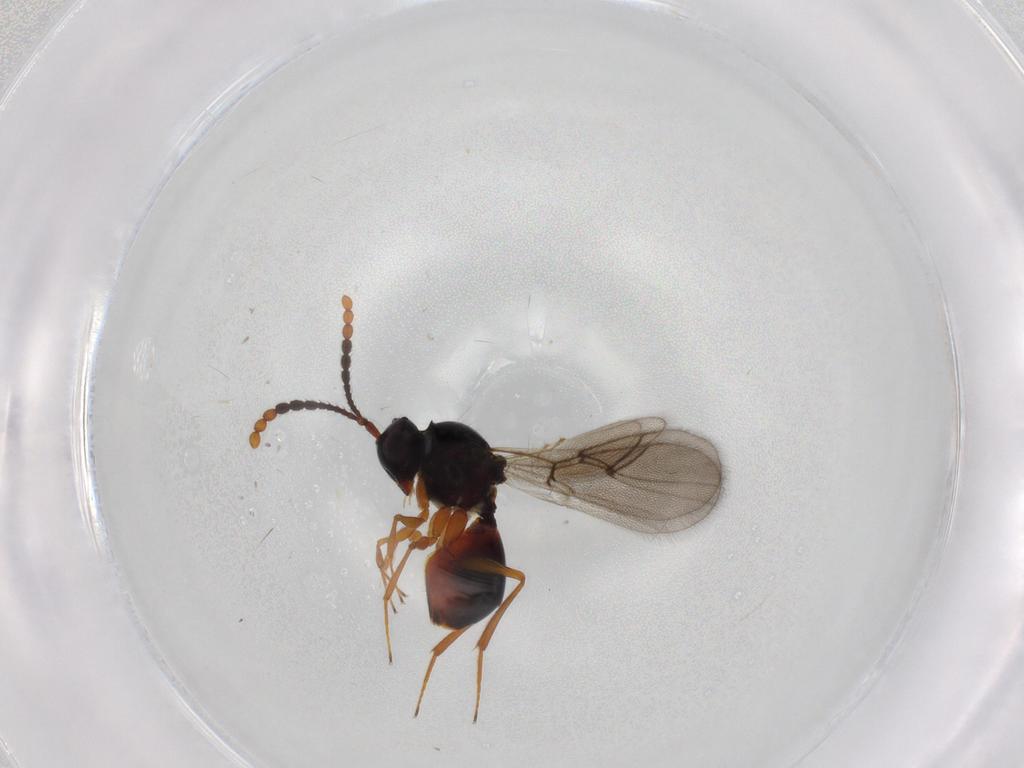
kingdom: Animalia
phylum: Arthropoda
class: Insecta
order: Hymenoptera
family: Figitidae
